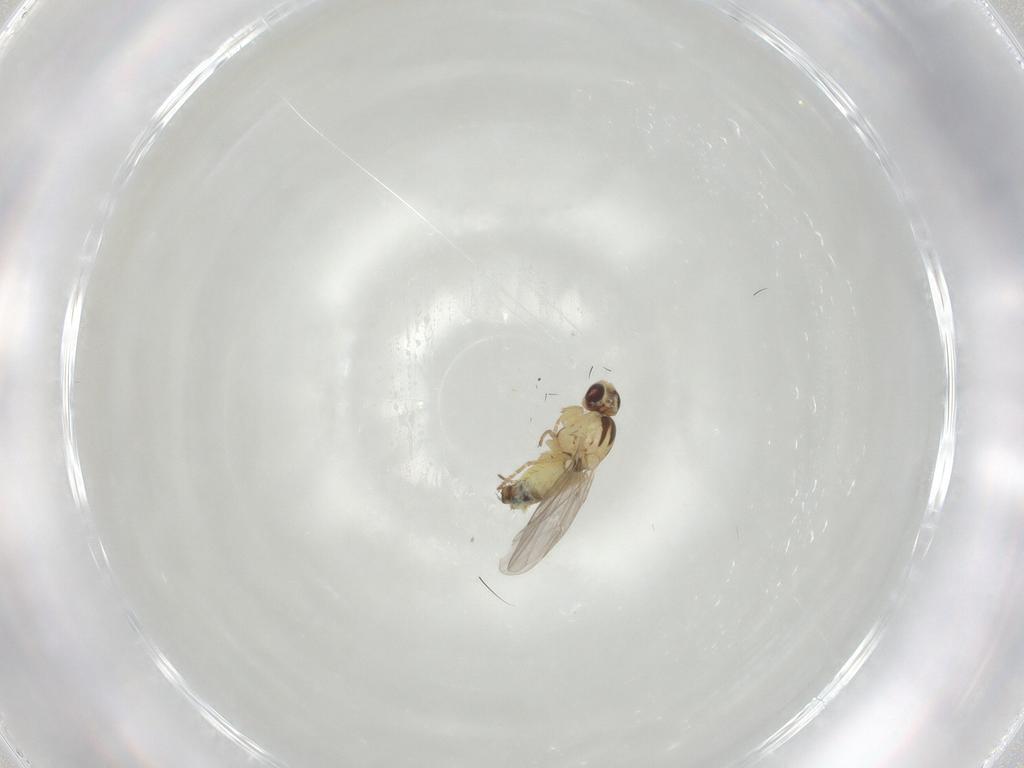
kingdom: Animalia
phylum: Arthropoda
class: Insecta
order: Diptera
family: Agromyzidae
